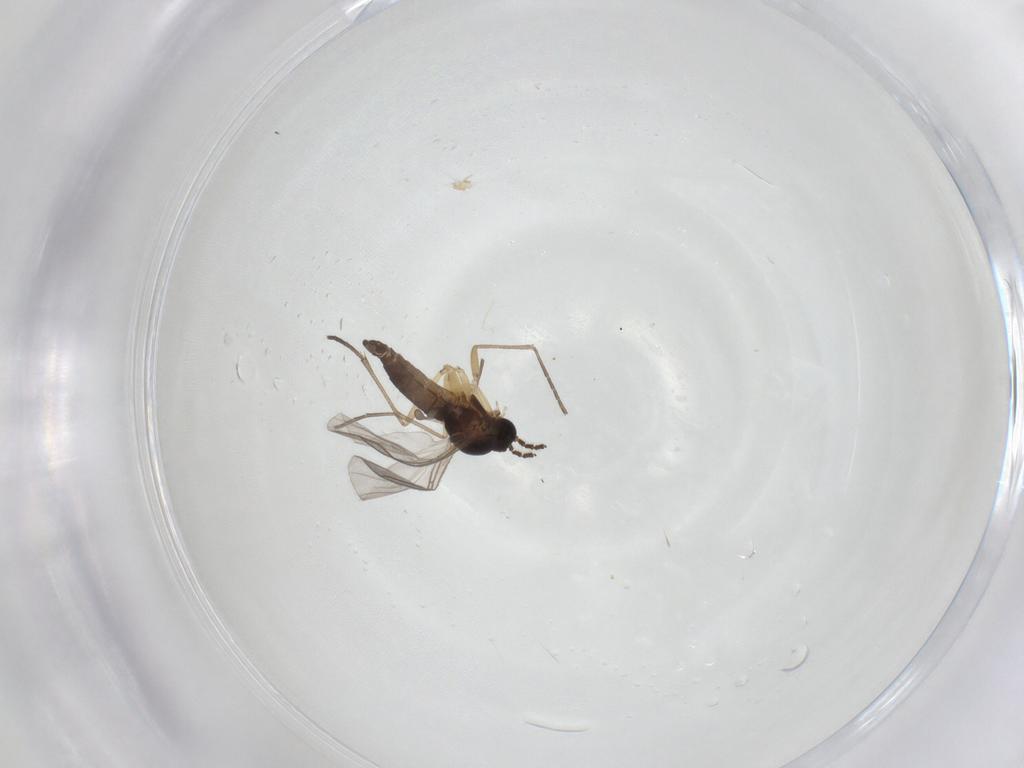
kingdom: Animalia
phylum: Arthropoda
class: Insecta
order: Diptera
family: Sciaridae
